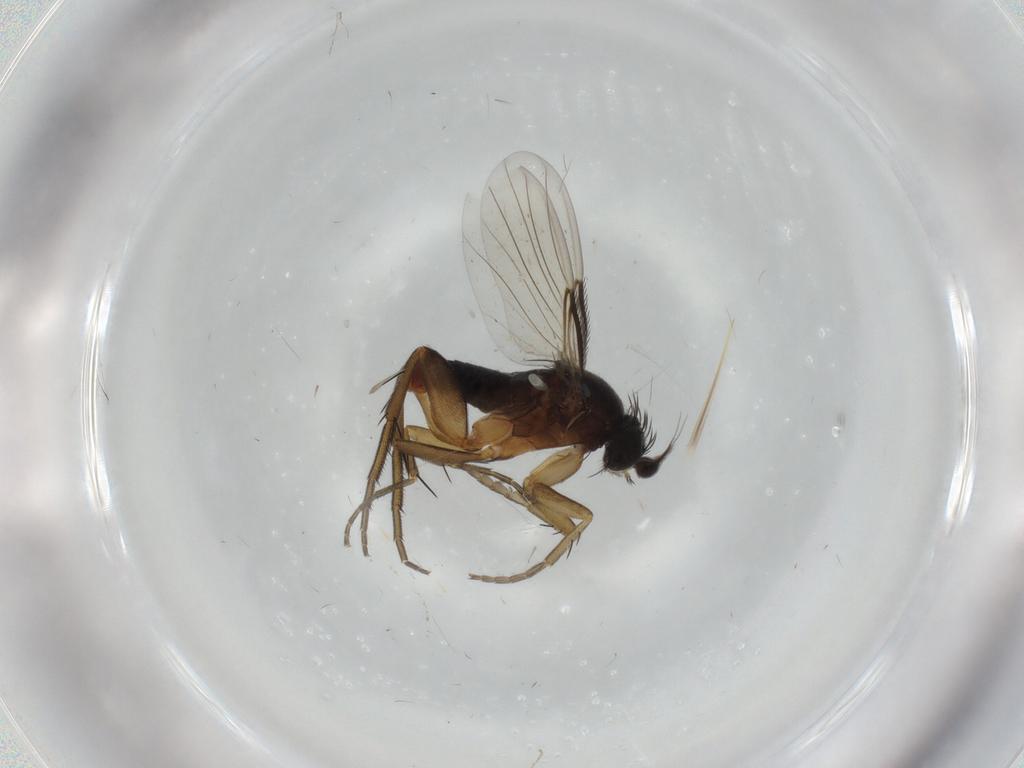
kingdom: Animalia
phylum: Arthropoda
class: Insecta
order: Diptera
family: Phoridae
